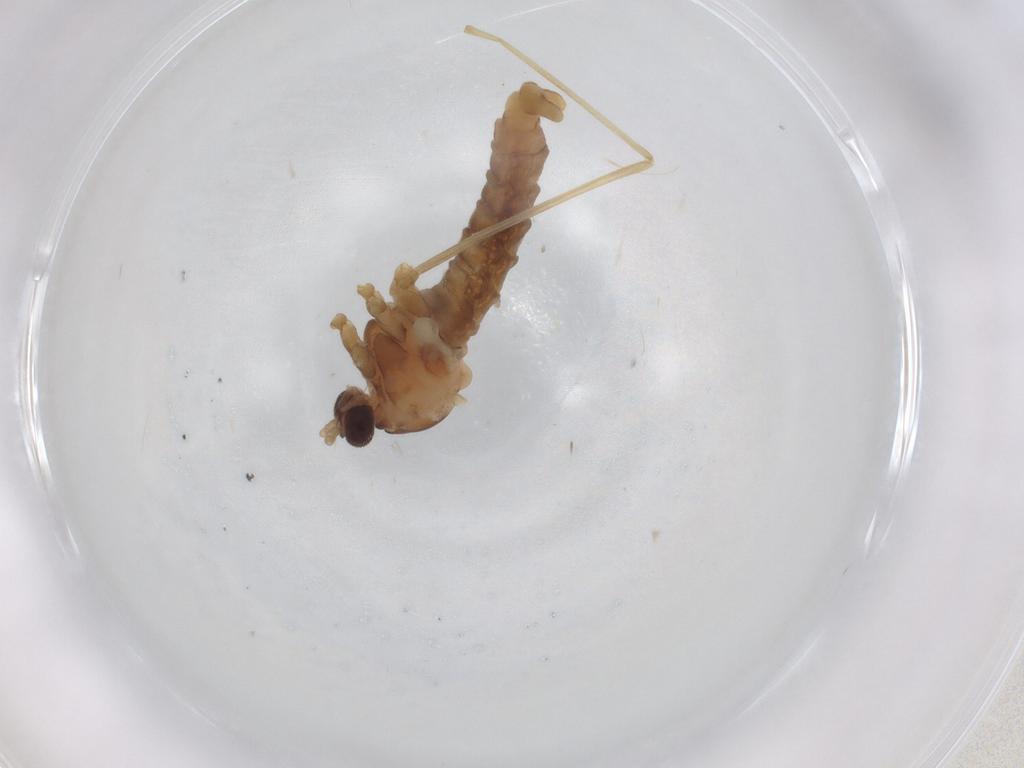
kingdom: Animalia
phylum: Arthropoda
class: Insecta
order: Diptera
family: Cecidomyiidae
